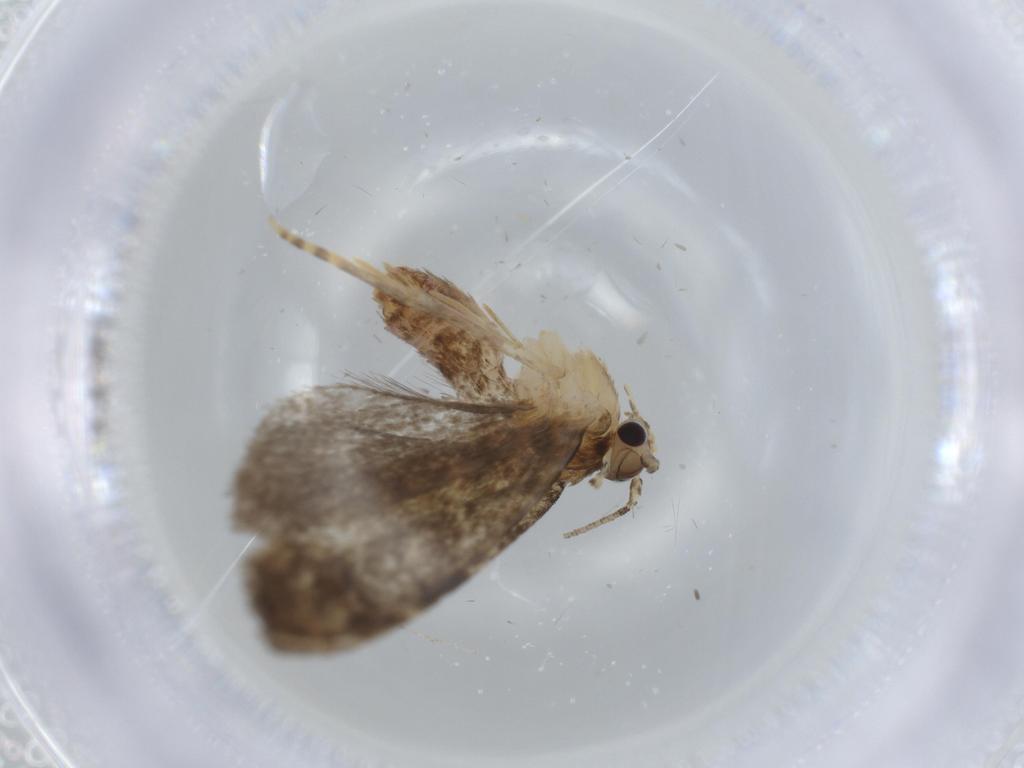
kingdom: Animalia
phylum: Arthropoda
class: Insecta
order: Lepidoptera
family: Tineidae
